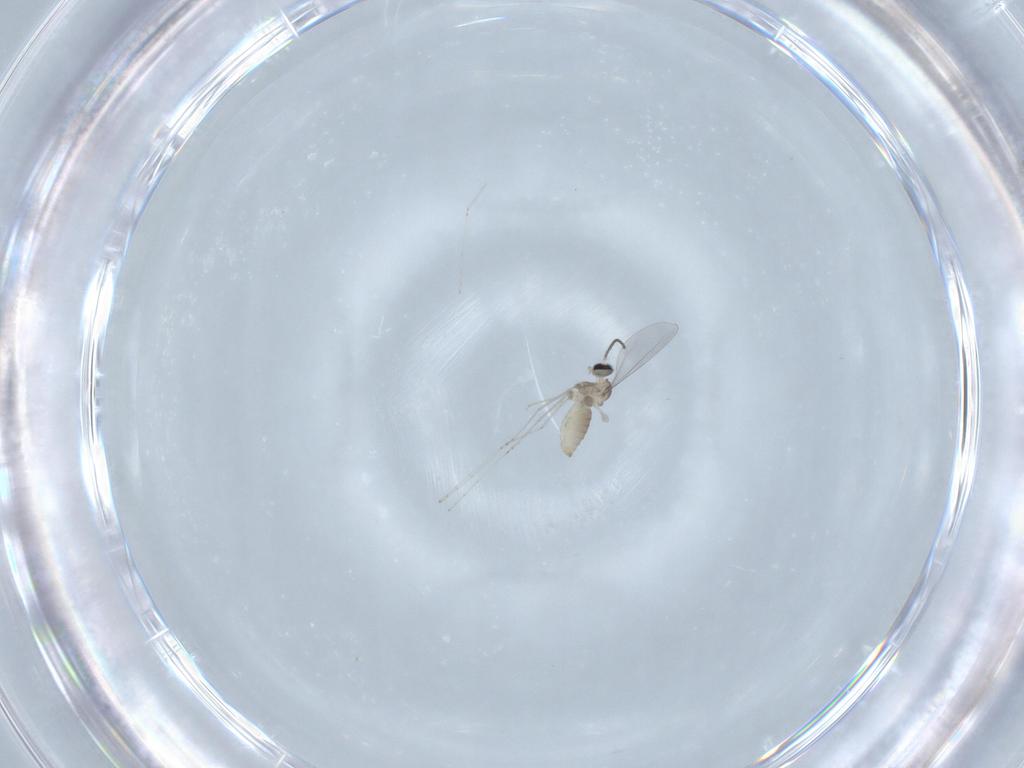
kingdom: Animalia
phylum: Arthropoda
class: Insecta
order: Diptera
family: Cecidomyiidae
